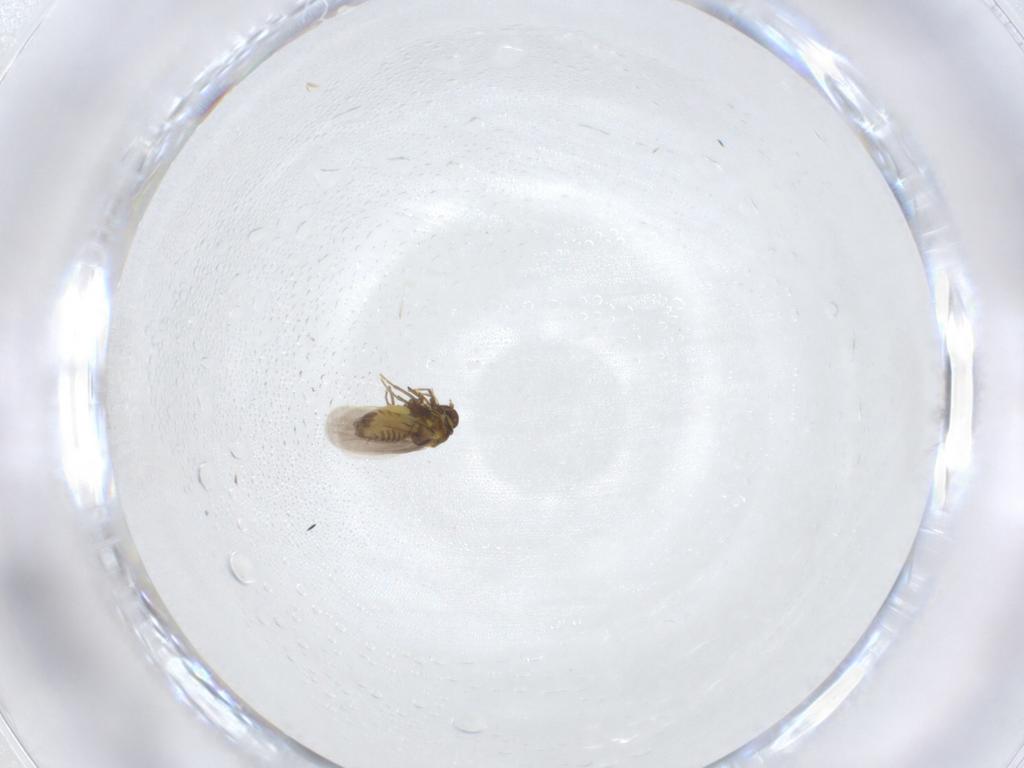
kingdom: Animalia
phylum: Arthropoda
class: Insecta
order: Hemiptera
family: Aleyrodidae
